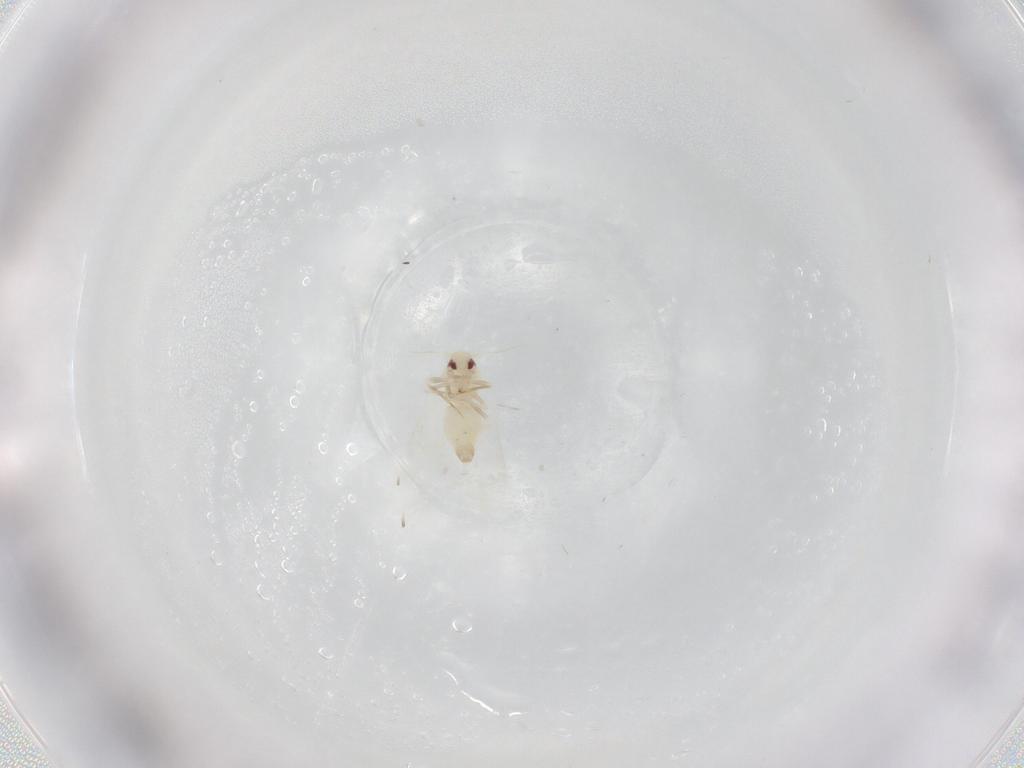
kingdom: Animalia
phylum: Arthropoda
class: Insecta
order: Hemiptera
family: Aleyrodidae
